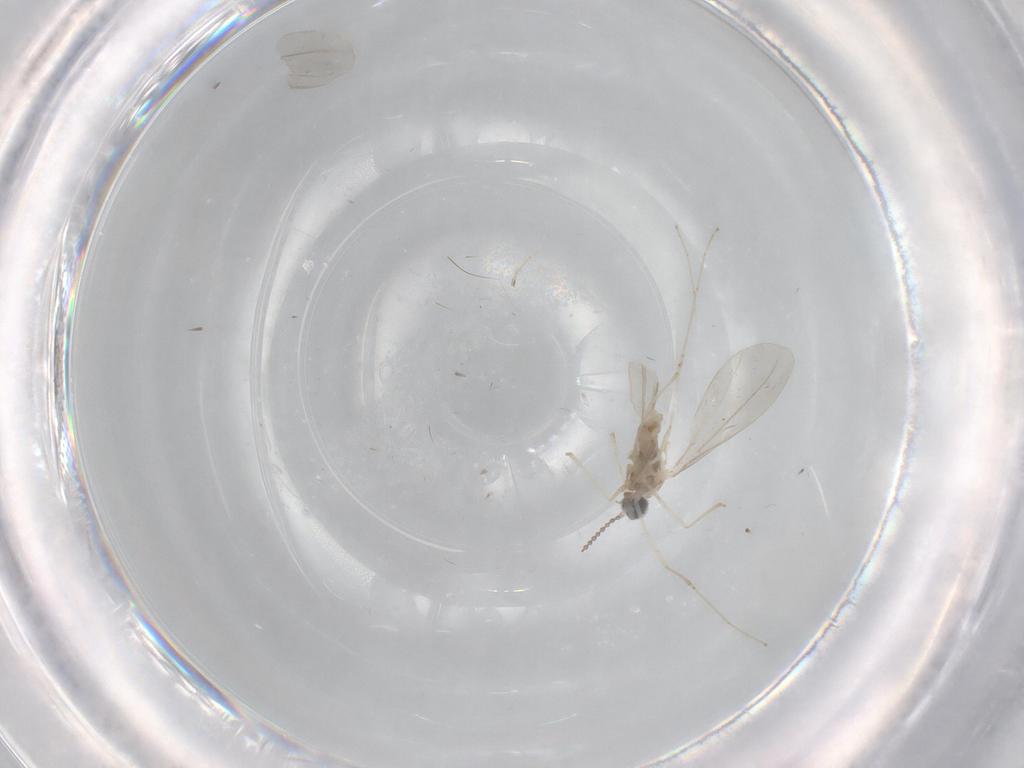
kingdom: Animalia
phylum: Arthropoda
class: Insecta
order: Diptera
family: Cecidomyiidae
